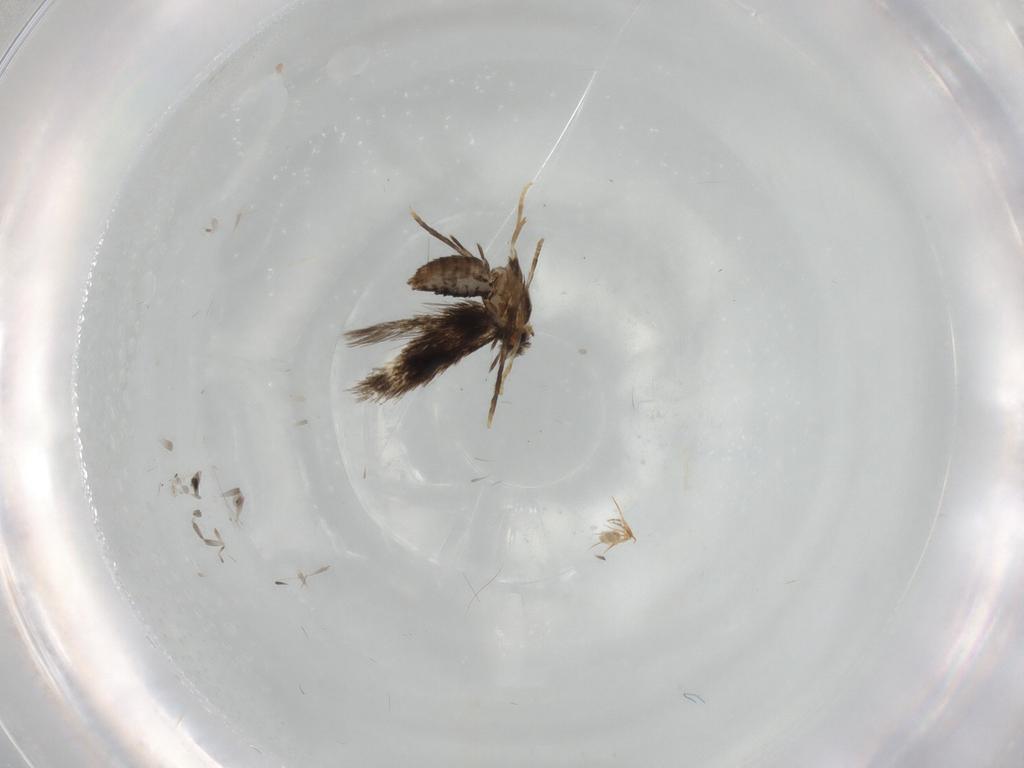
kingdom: Animalia
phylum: Arthropoda
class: Insecta
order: Lepidoptera
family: Nepticulidae
